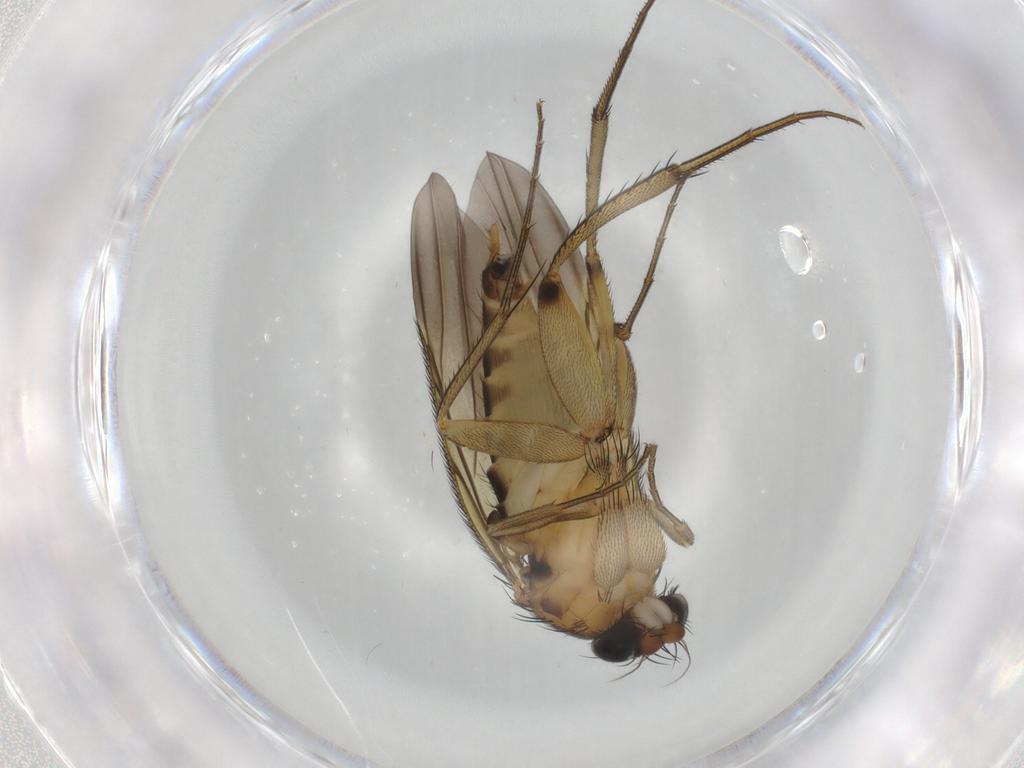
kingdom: Animalia
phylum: Arthropoda
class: Insecta
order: Diptera
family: Phoridae
